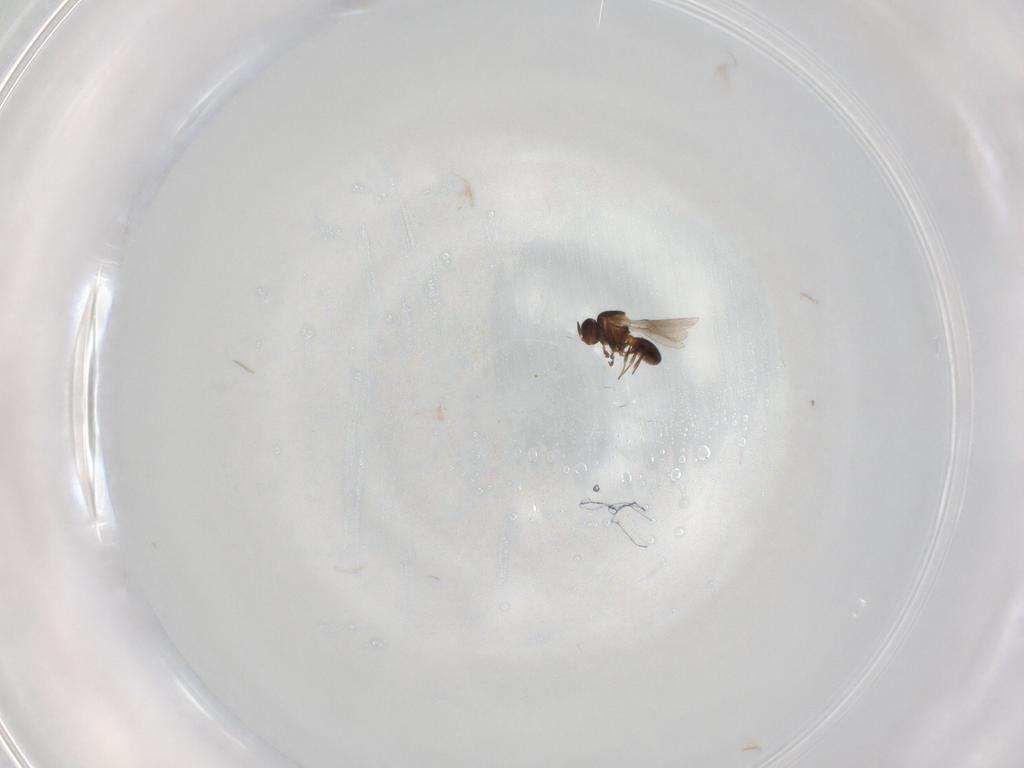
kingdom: Animalia
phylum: Arthropoda
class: Insecta
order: Hymenoptera
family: Scelionidae
